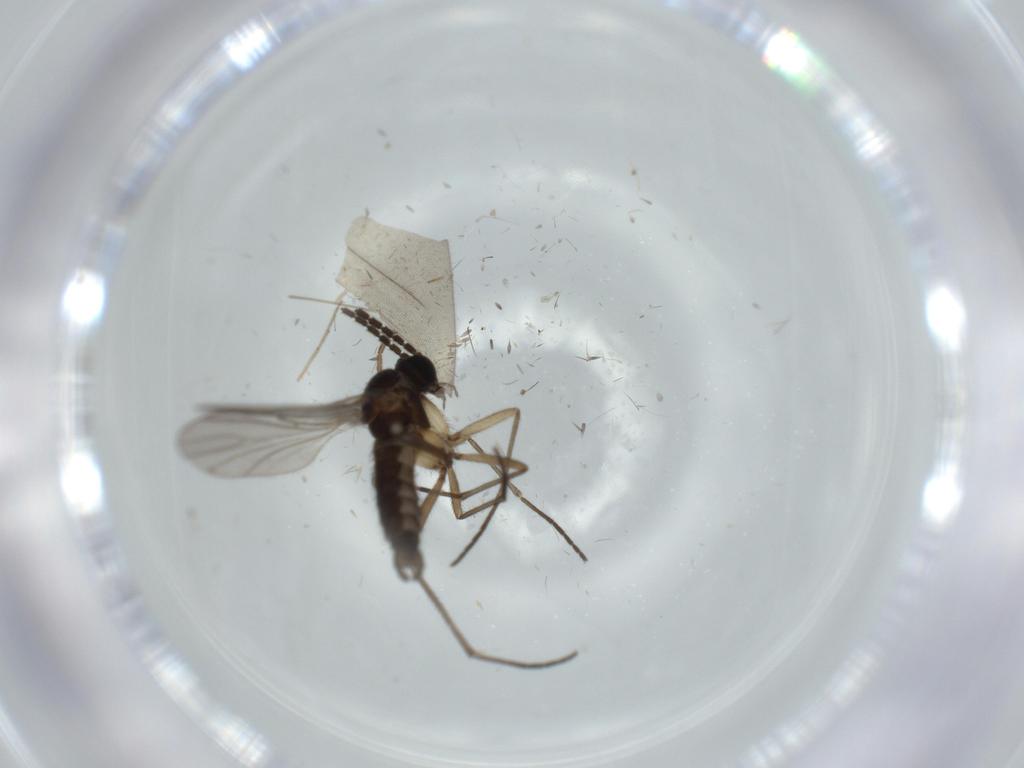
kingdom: Animalia
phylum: Arthropoda
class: Insecta
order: Diptera
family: Sciaridae
